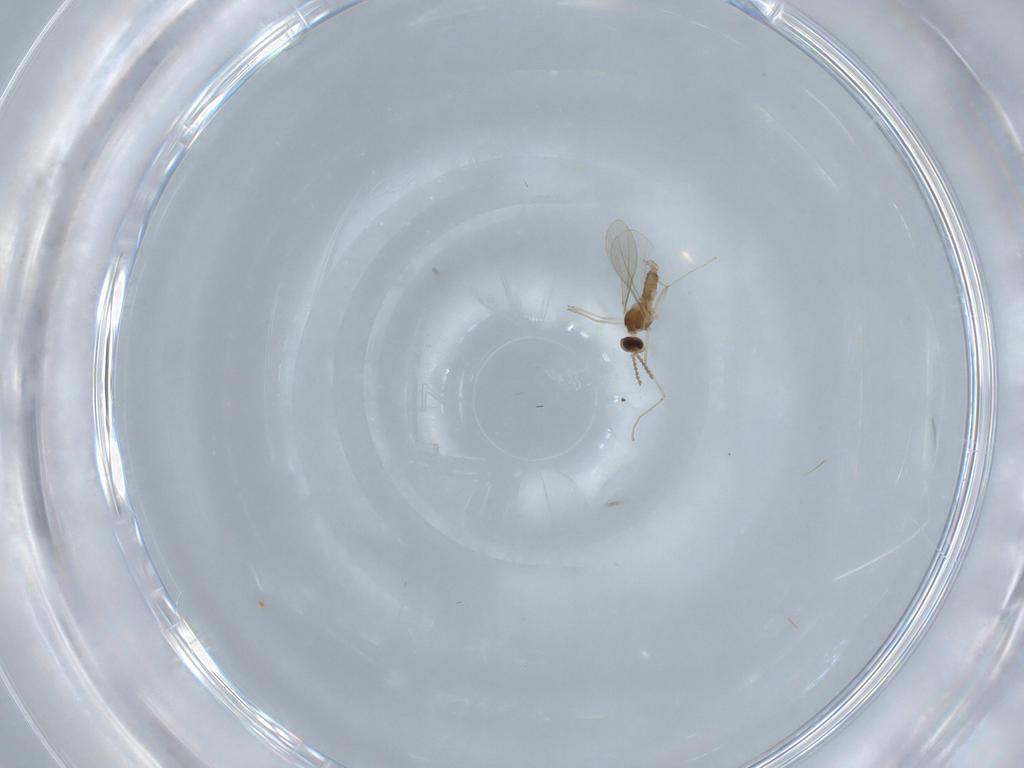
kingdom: Animalia
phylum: Arthropoda
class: Insecta
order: Diptera
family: Cecidomyiidae
